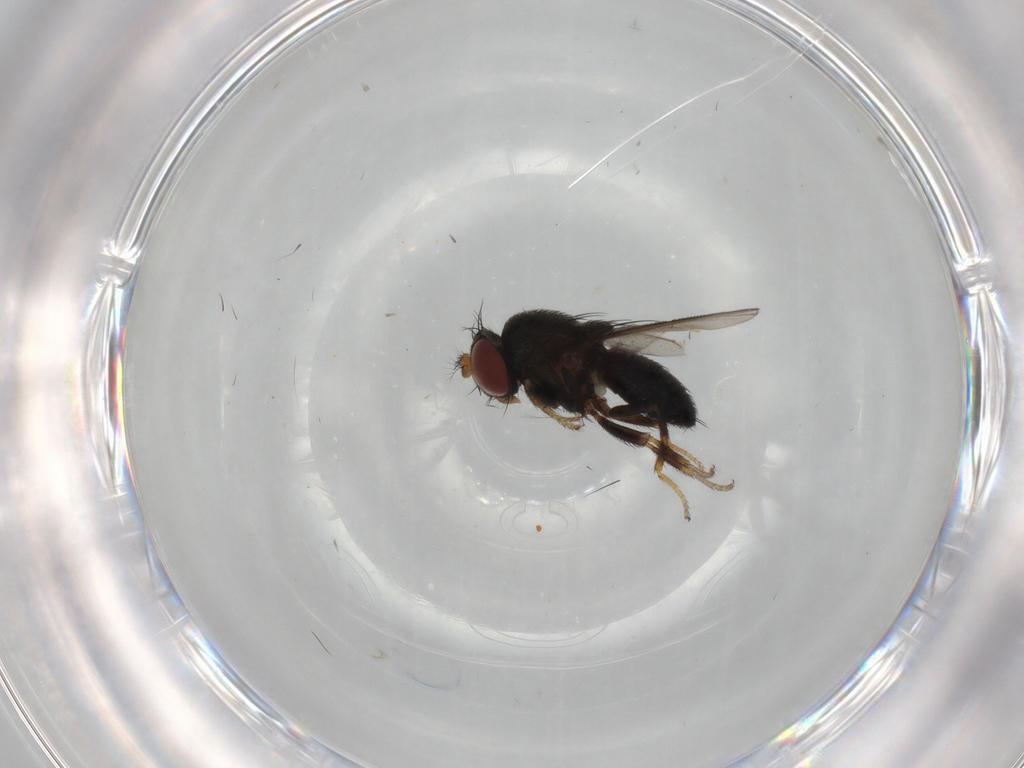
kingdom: Animalia
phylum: Arthropoda
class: Insecta
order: Diptera
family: Ephydridae
